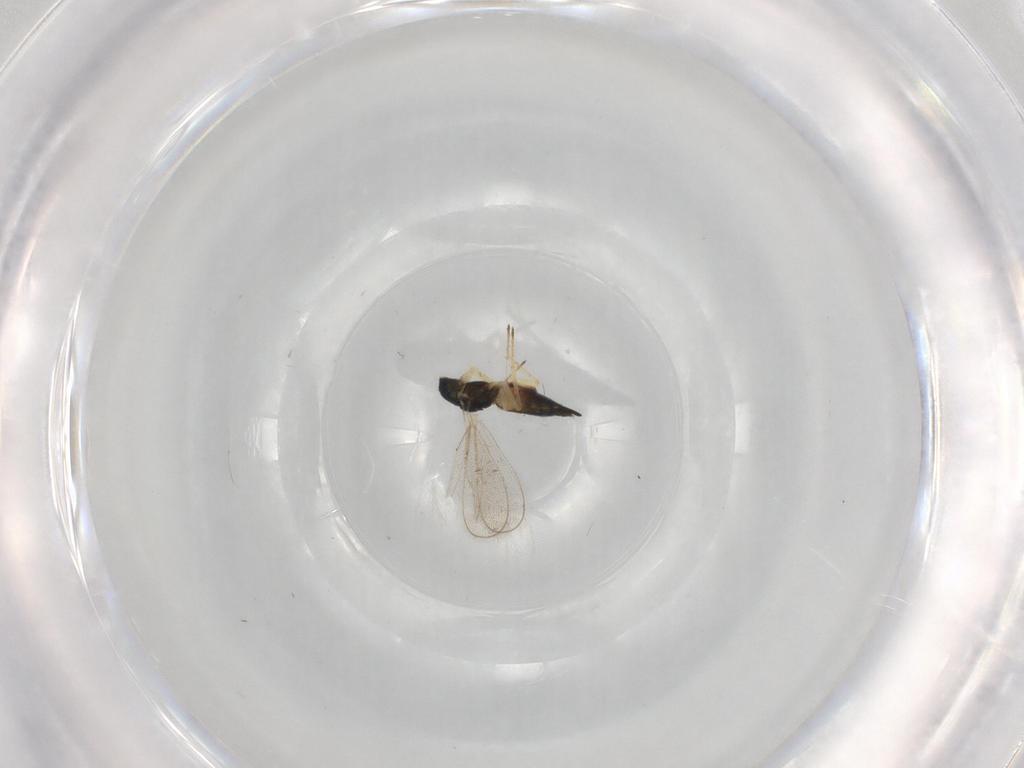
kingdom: Animalia
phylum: Arthropoda
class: Insecta
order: Hymenoptera
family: Eulophidae
